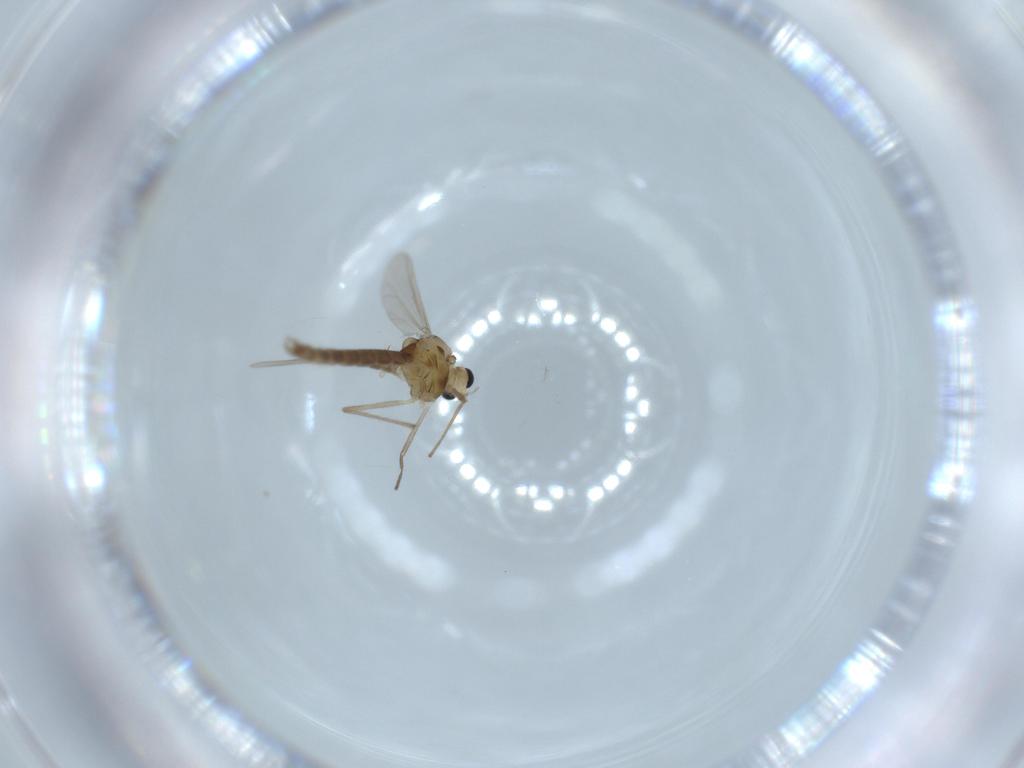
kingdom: Animalia
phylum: Arthropoda
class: Insecta
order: Diptera
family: Chironomidae
